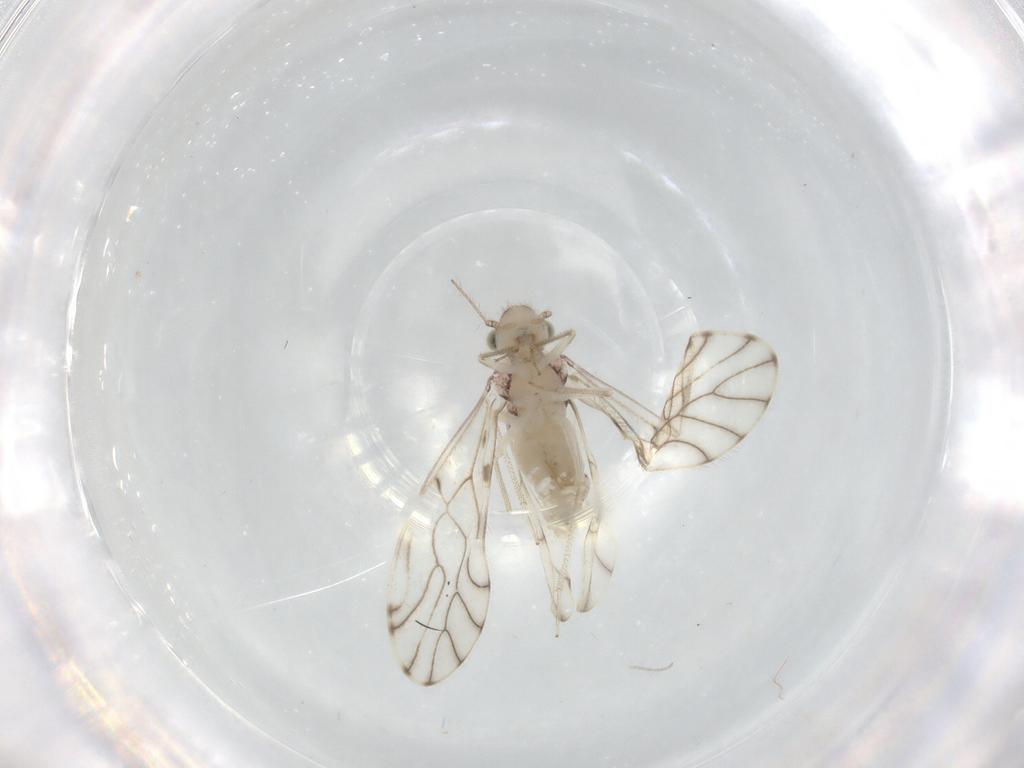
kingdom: Animalia
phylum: Arthropoda
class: Insecta
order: Psocodea
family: Philotarsidae
